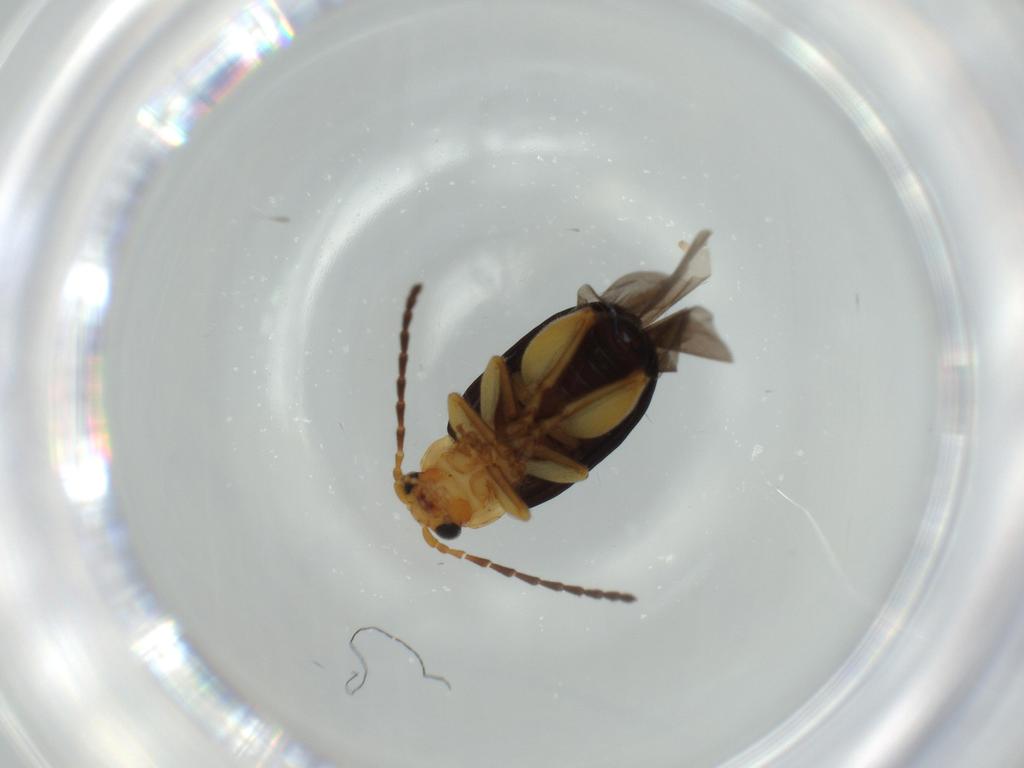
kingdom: Animalia
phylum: Arthropoda
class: Insecta
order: Coleoptera
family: Chrysomelidae
